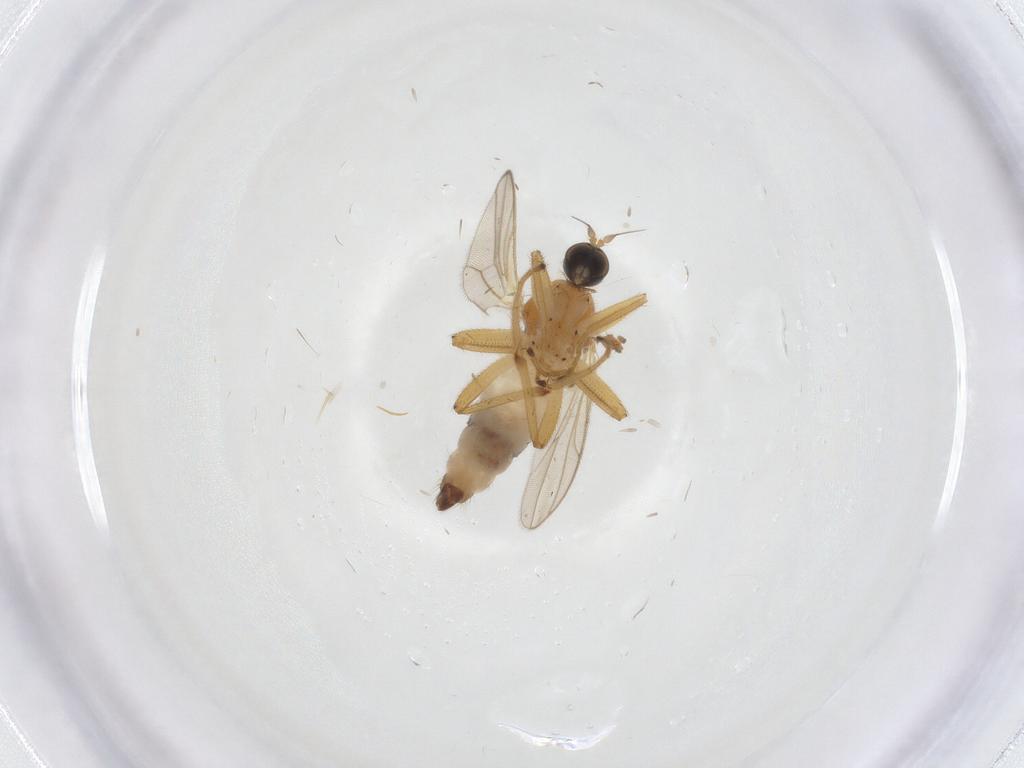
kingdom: Animalia
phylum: Arthropoda
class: Insecta
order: Diptera
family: Hybotidae
